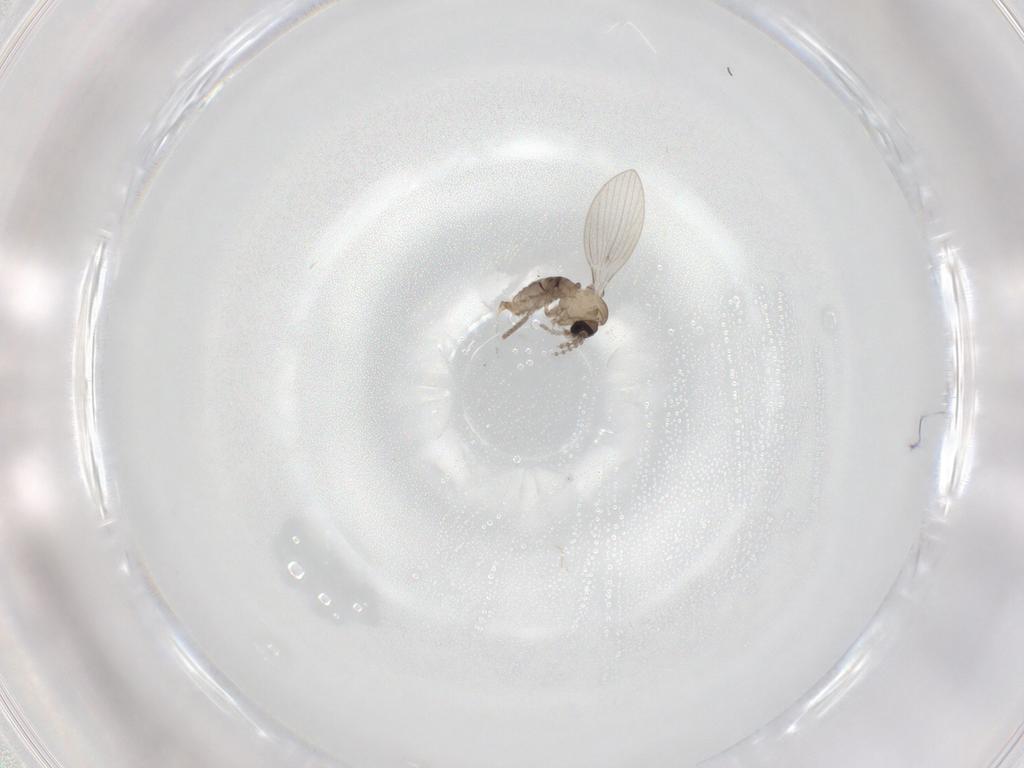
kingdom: Animalia
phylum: Arthropoda
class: Insecta
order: Diptera
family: Psychodidae
